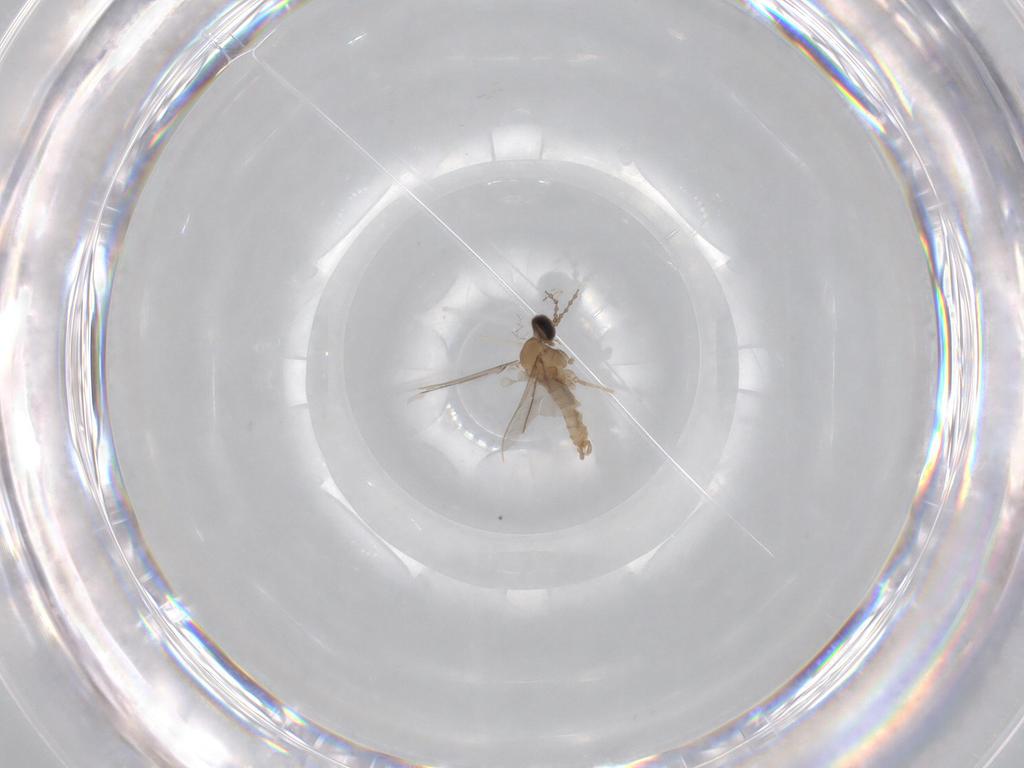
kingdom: Animalia
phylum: Arthropoda
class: Insecta
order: Diptera
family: Cecidomyiidae
